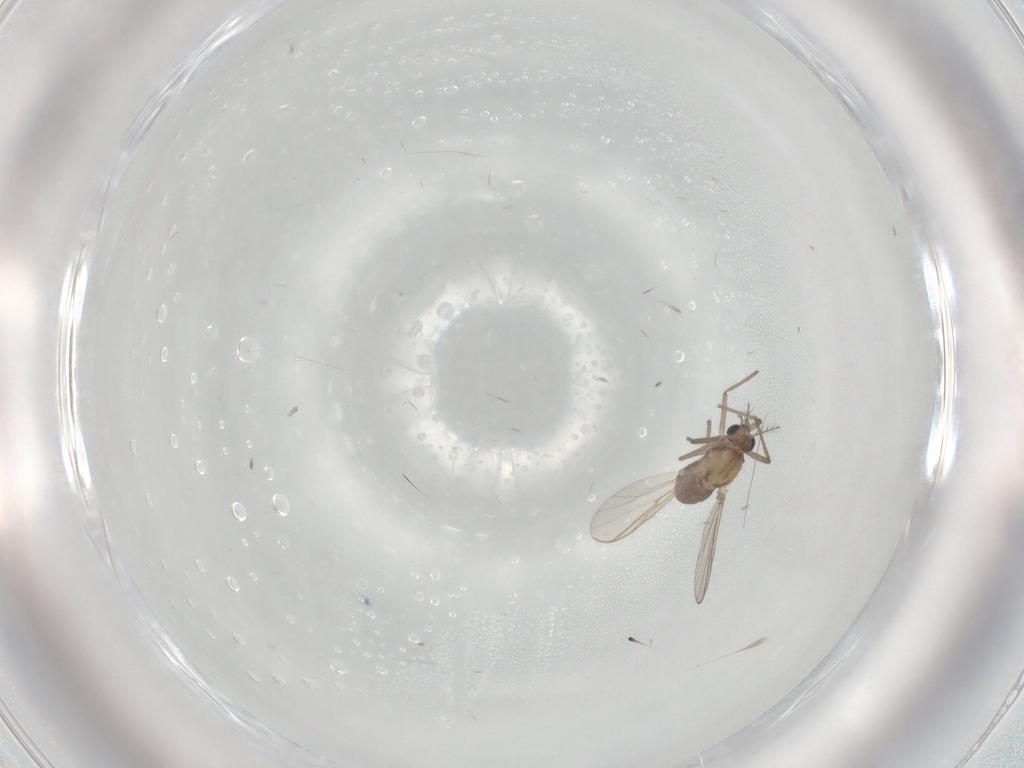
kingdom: Animalia
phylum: Arthropoda
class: Insecta
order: Diptera
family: Chironomidae
